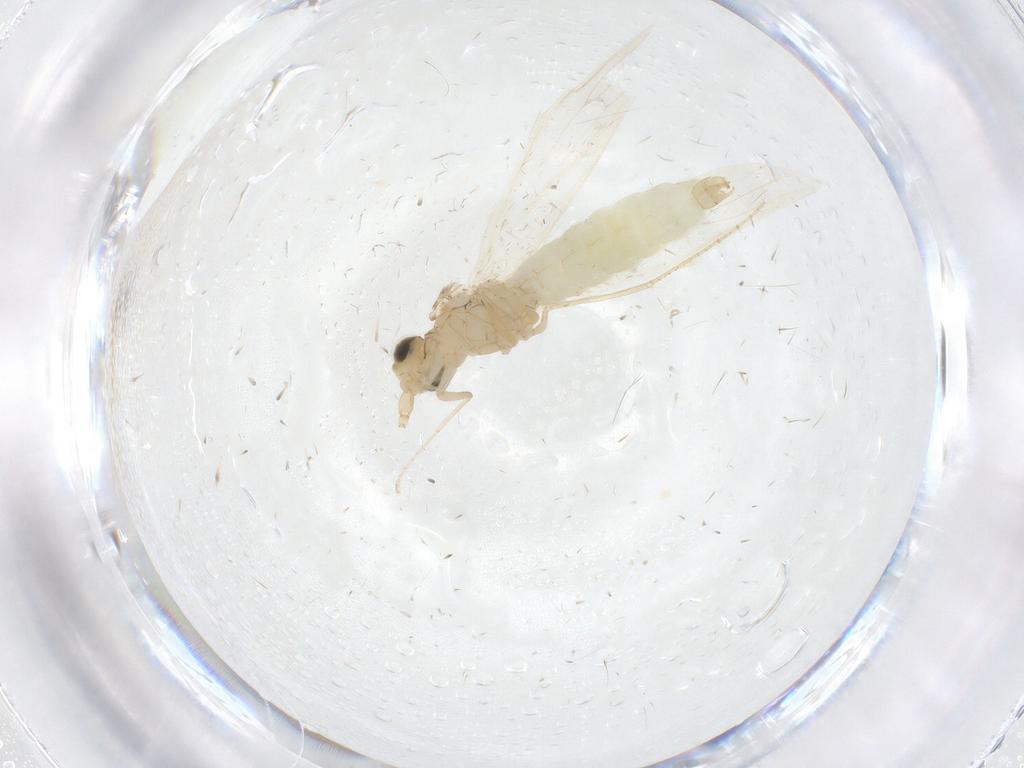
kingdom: Animalia
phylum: Arthropoda
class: Insecta
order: Trichoptera
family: Leptoceridae
